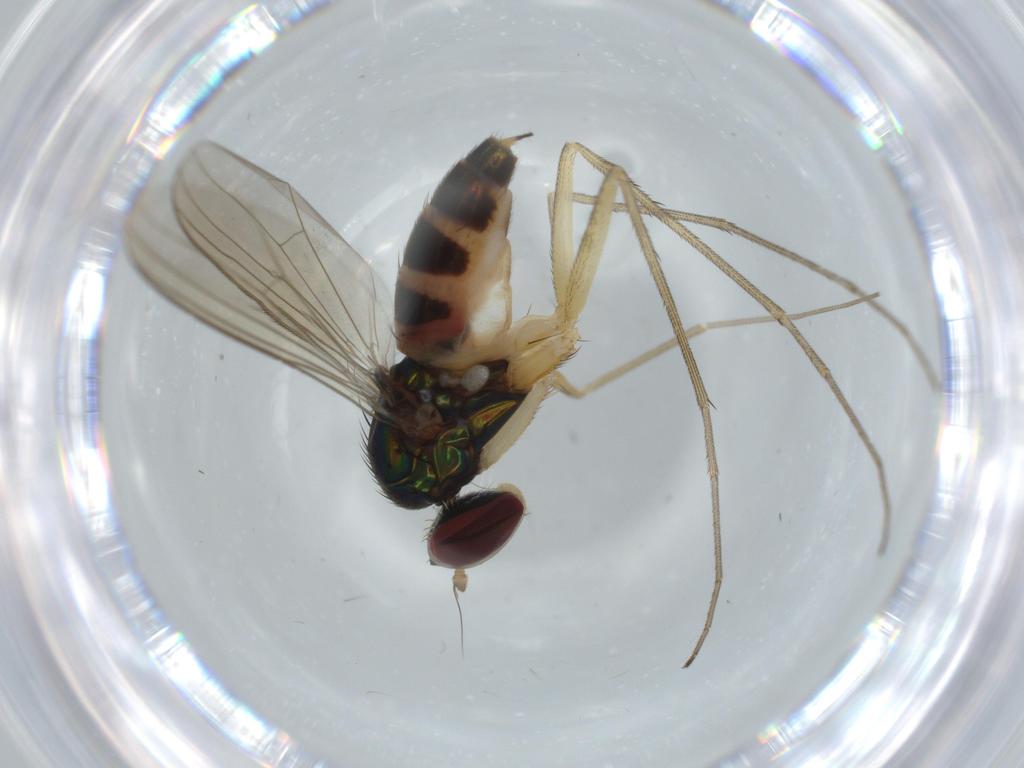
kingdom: Animalia
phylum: Arthropoda
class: Insecta
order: Diptera
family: Dolichopodidae
